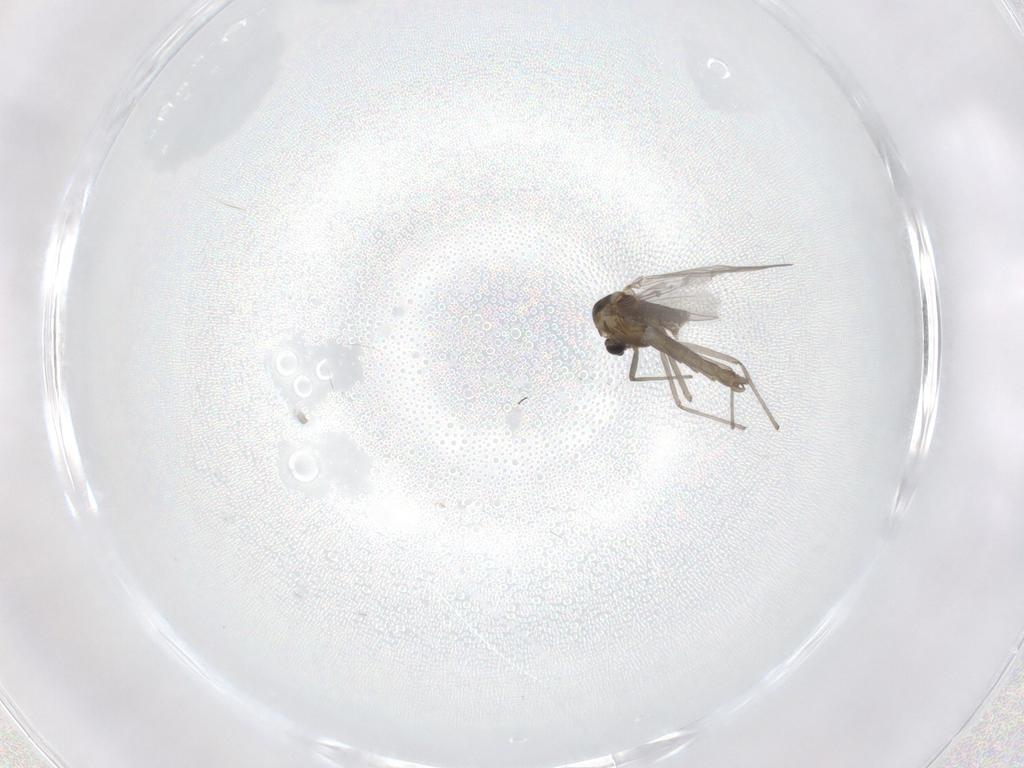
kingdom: Animalia
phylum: Arthropoda
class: Insecta
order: Diptera
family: Chironomidae
